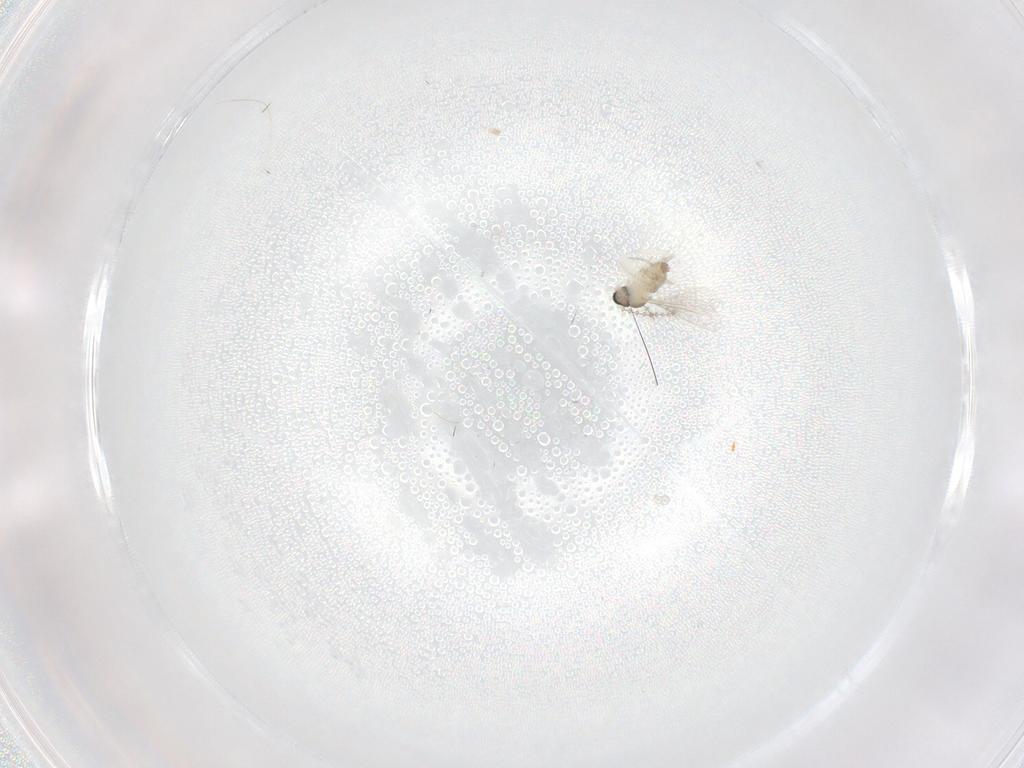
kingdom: Animalia
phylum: Arthropoda
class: Insecta
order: Diptera
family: Cecidomyiidae
